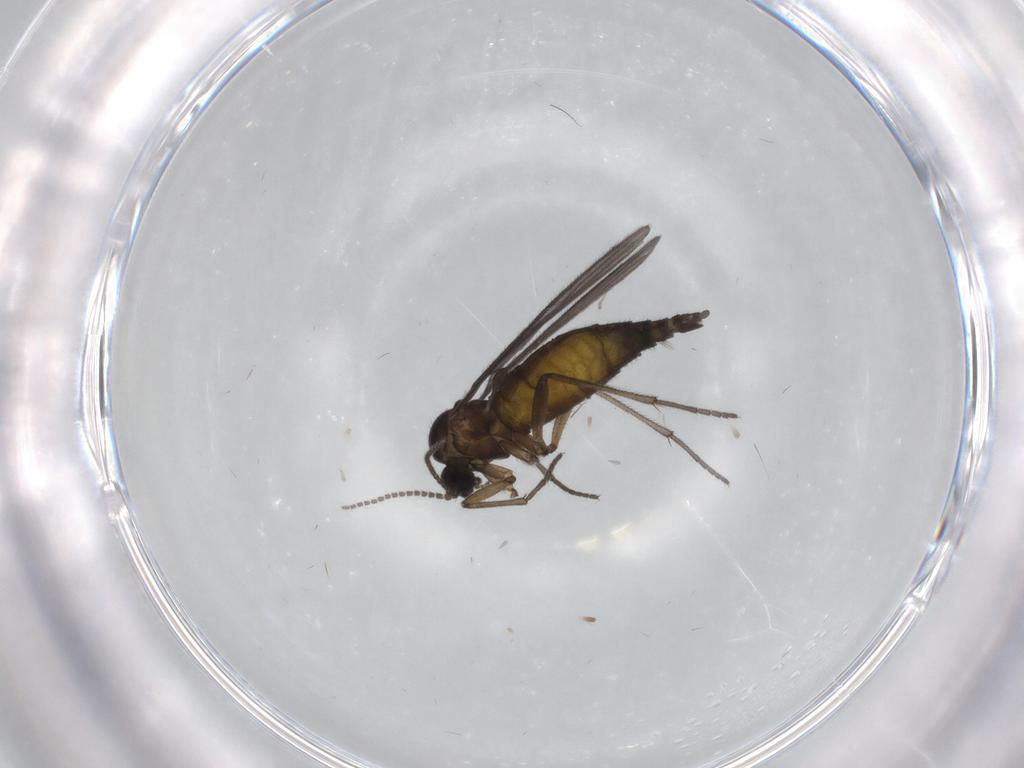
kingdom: Animalia
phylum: Arthropoda
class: Insecta
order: Diptera
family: Sciaridae
